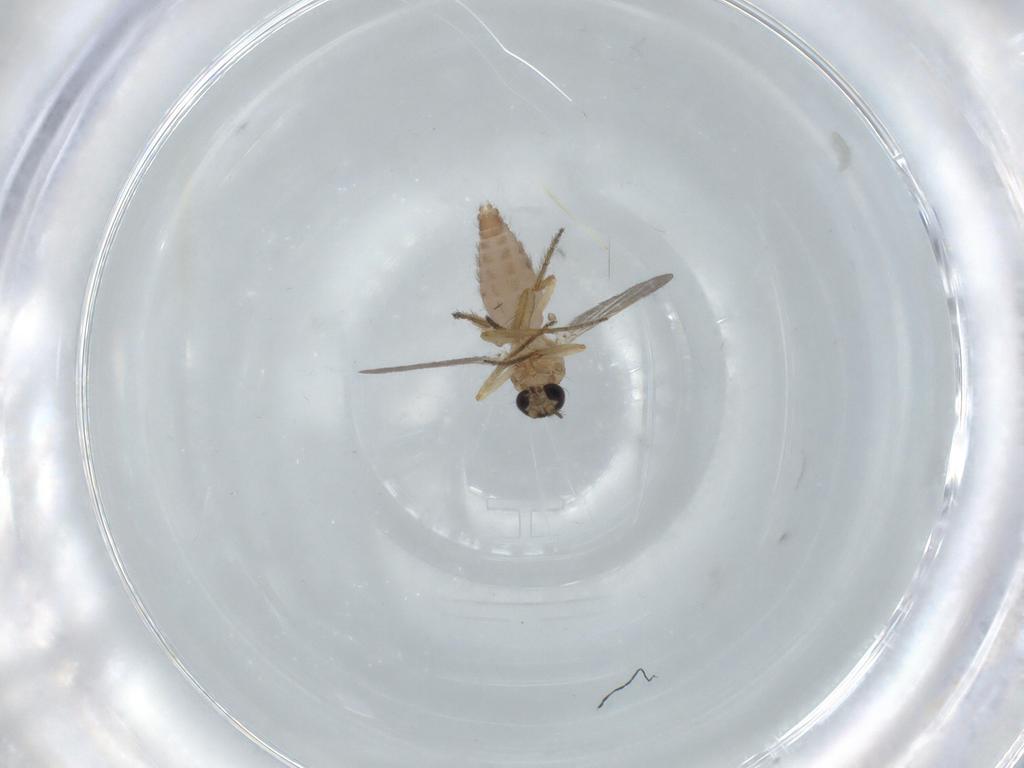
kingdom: Animalia
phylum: Arthropoda
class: Insecta
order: Diptera
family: Ceratopogonidae
